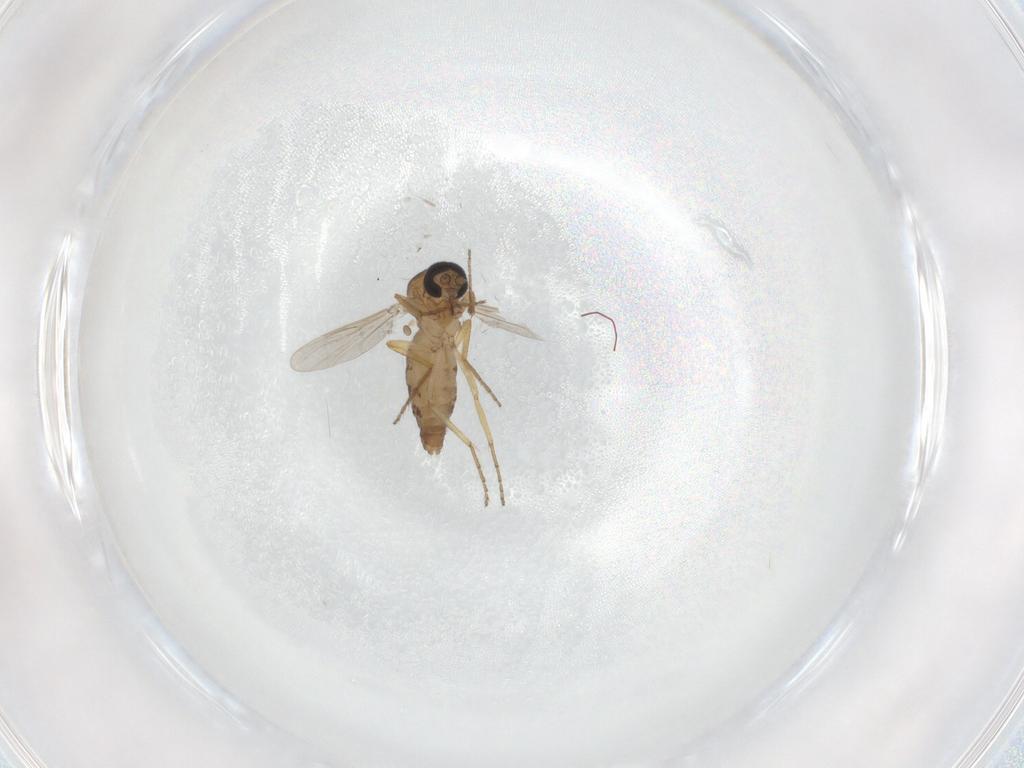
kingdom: Animalia
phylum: Arthropoda
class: Insecta
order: Diptera
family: Ceratopogonidae
